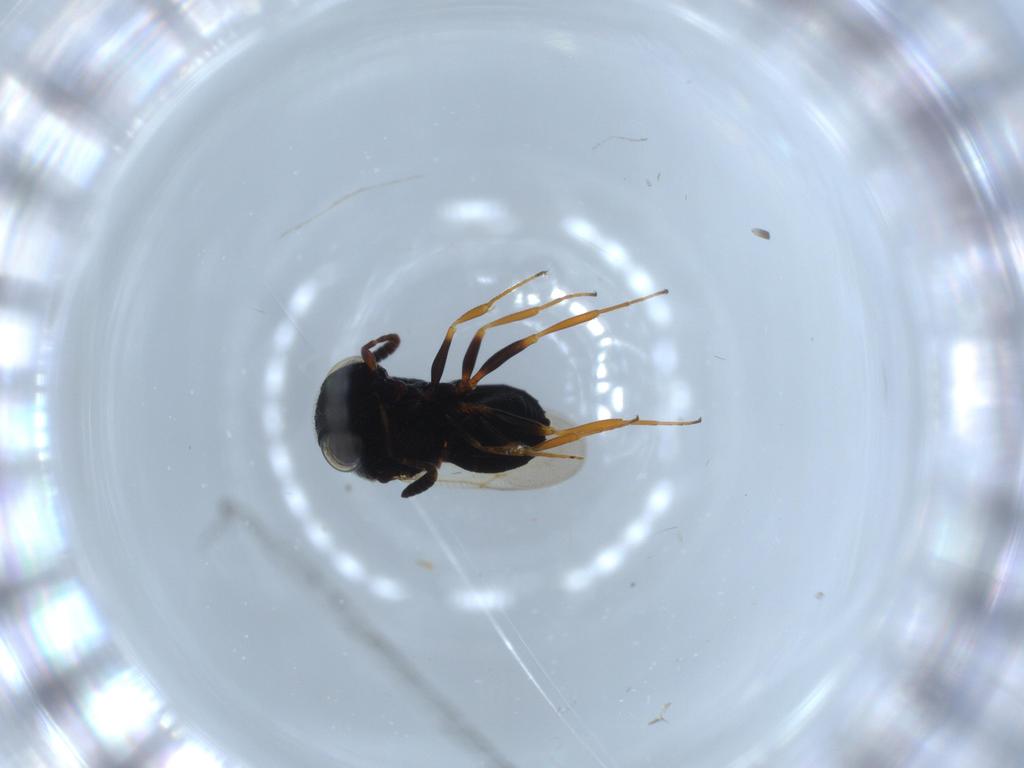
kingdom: Animalia
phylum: Arthropoda
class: Insecta
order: Hymenoptera
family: Scelionidae
